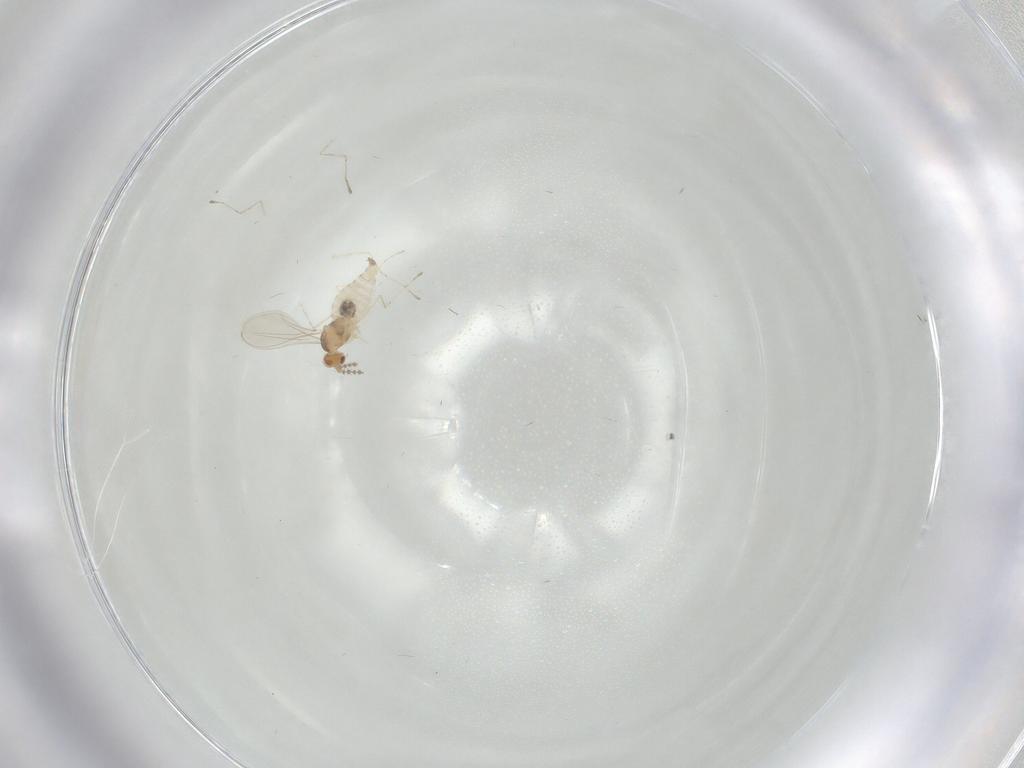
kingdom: Animalia
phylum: Arthropoda
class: Insecta
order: Diptera
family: Cecidomyiidae
